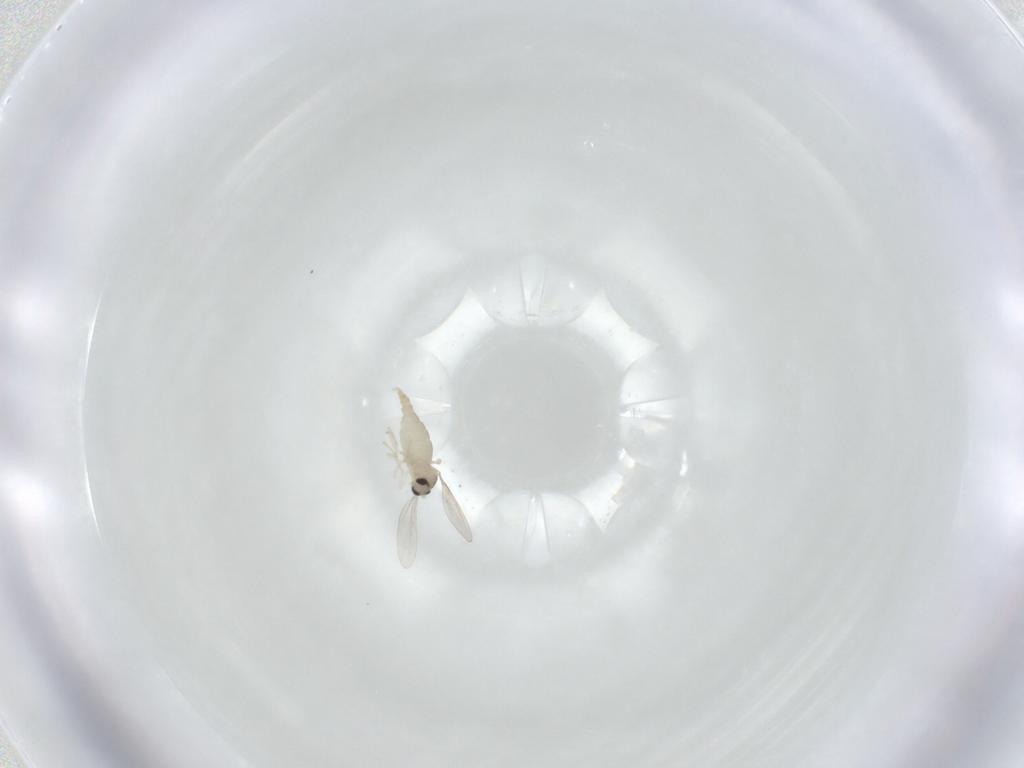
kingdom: Animalia
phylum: Arthropoda
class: Insecta
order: Diptera
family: Cecidomyiidae
